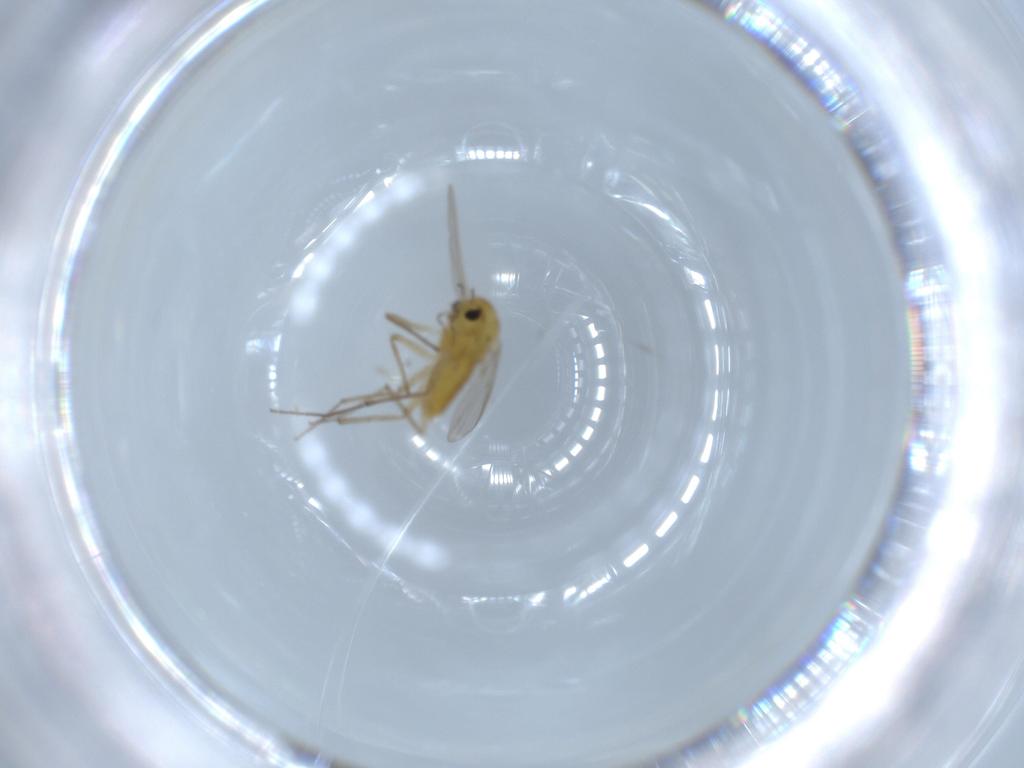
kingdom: Animalia
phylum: Arthropoda
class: Insecta
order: Diptera
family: Chironomidae
